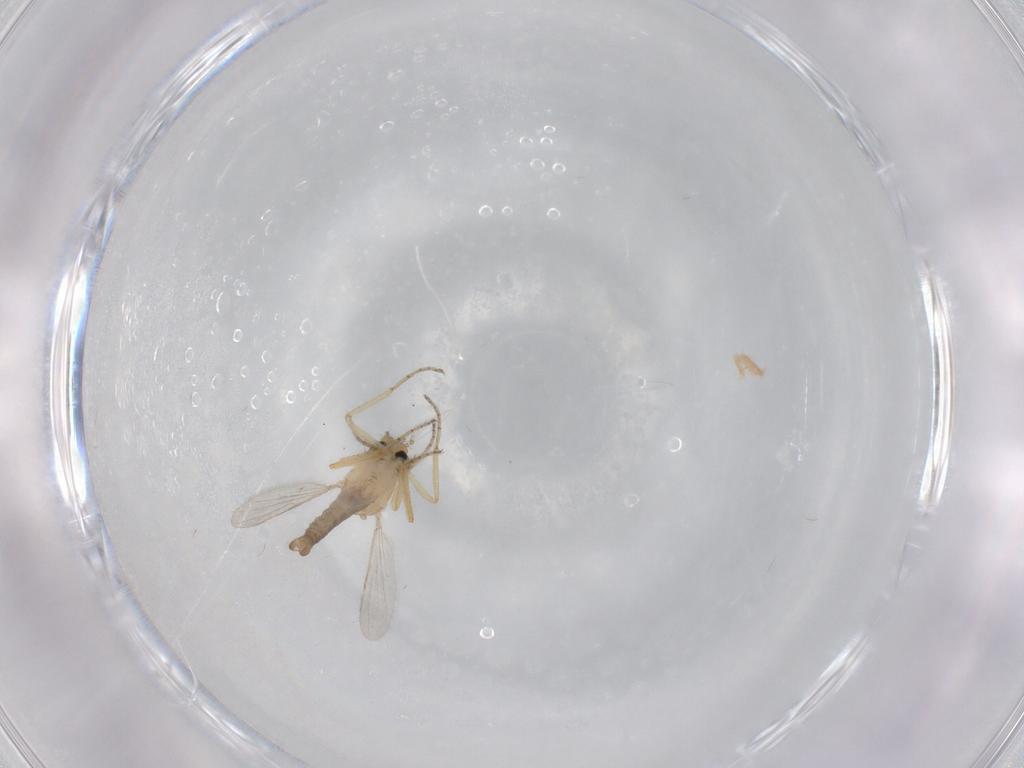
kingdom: Animalia
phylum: Arthropoda
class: Insecta
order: Diptera
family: Ceratopogonidae
